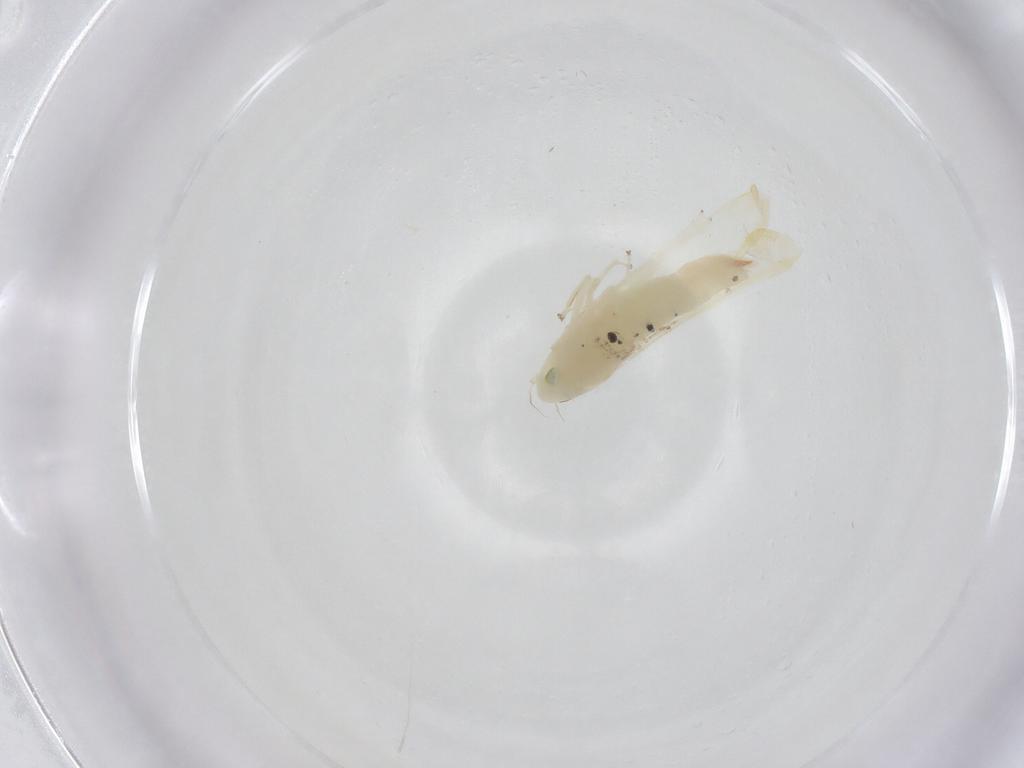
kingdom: Animalia
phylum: Arthropoda
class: Insecta
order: Hemiptera
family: Cicadellidae
